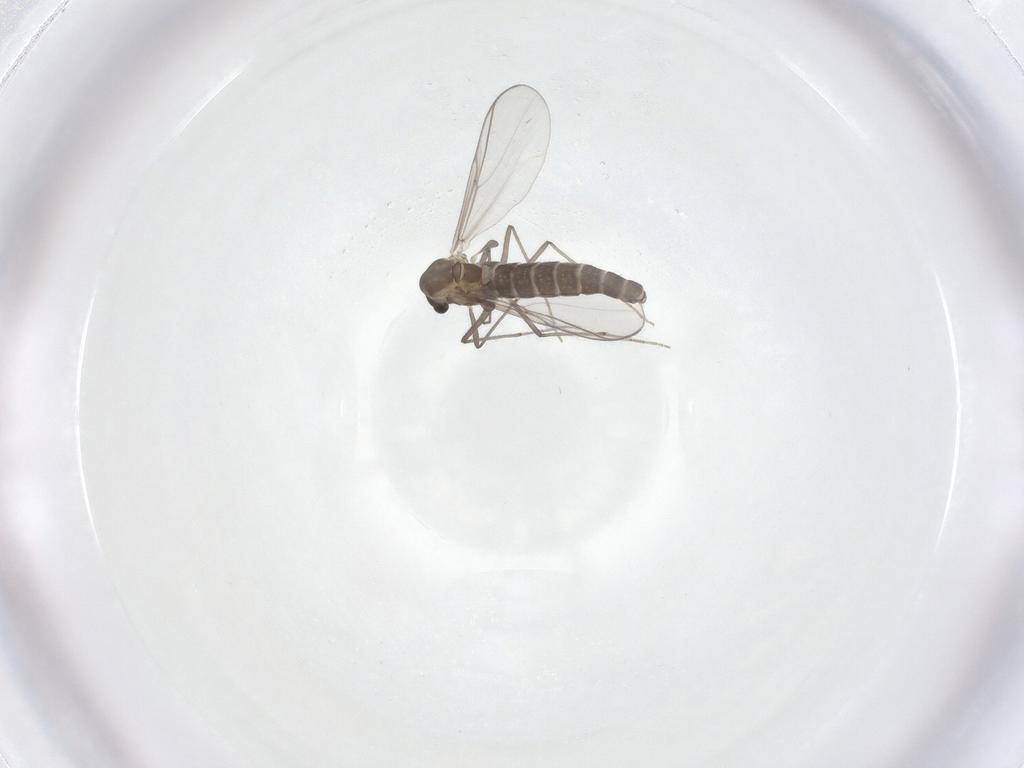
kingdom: Animalia
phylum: Arthropoda
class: Insecta
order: Diptera
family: Chironomidae
